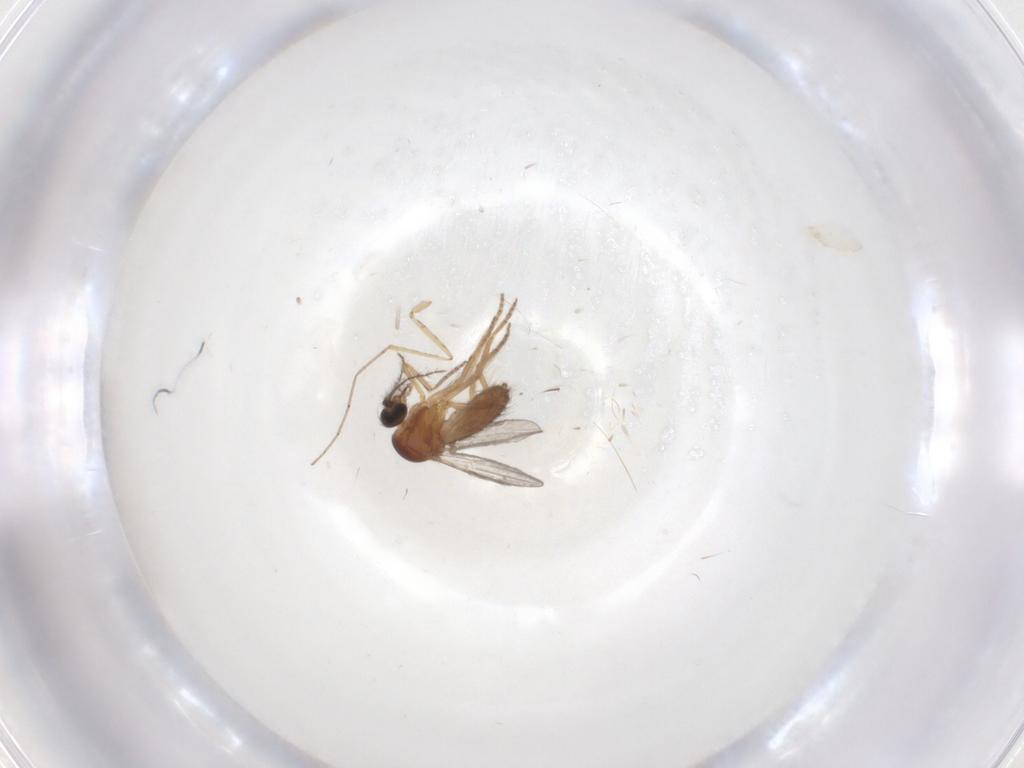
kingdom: Animalia
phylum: Arthropoda
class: Insecta
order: Diptera
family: Ceratopogonidae
